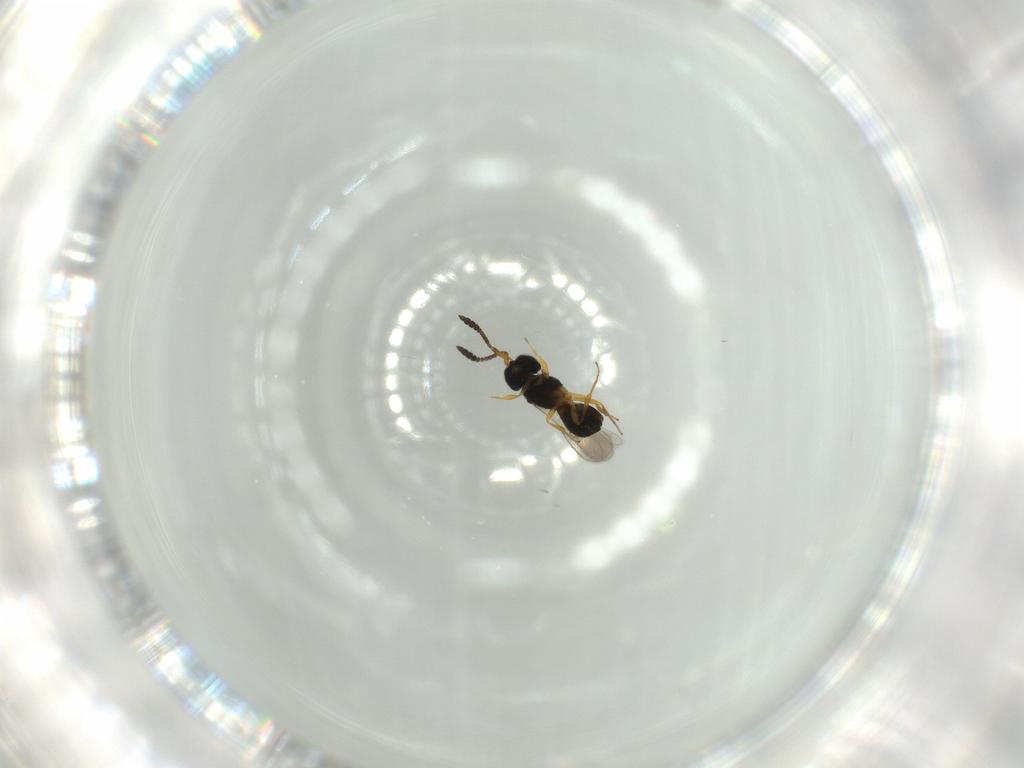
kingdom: Animalia
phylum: Arthropoda
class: Insecta
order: Hymenoptera
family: Scelionidae
